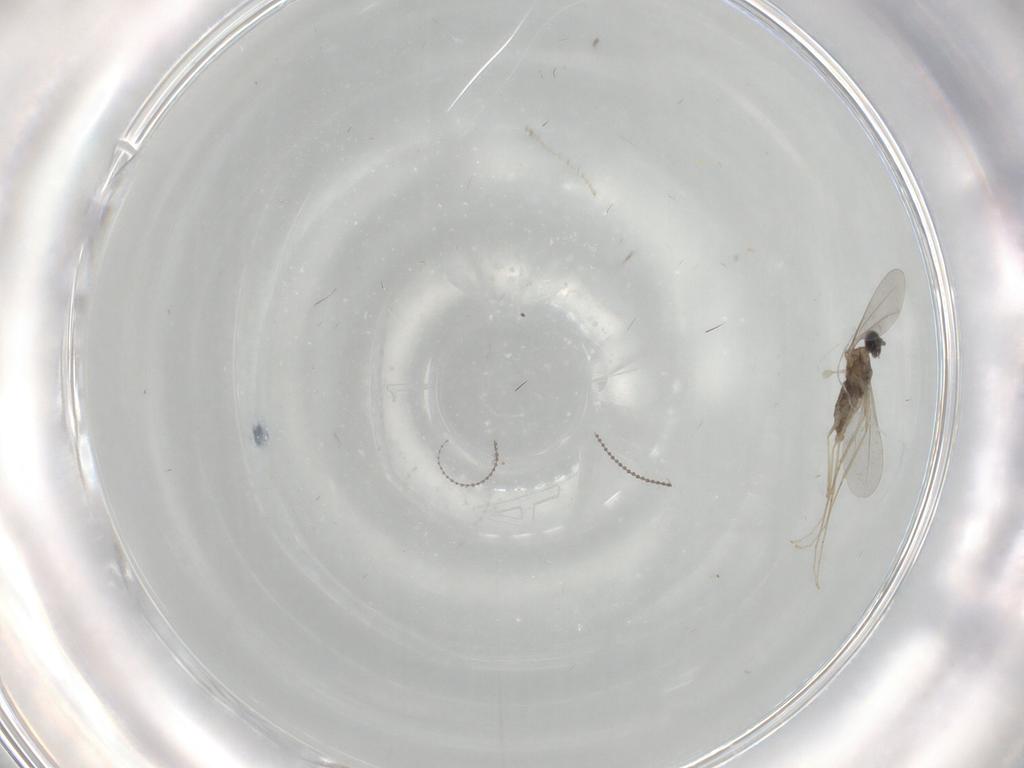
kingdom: Animalia
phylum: Arthropoda
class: Insecta
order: Diptera
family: Cecidomyiidae
